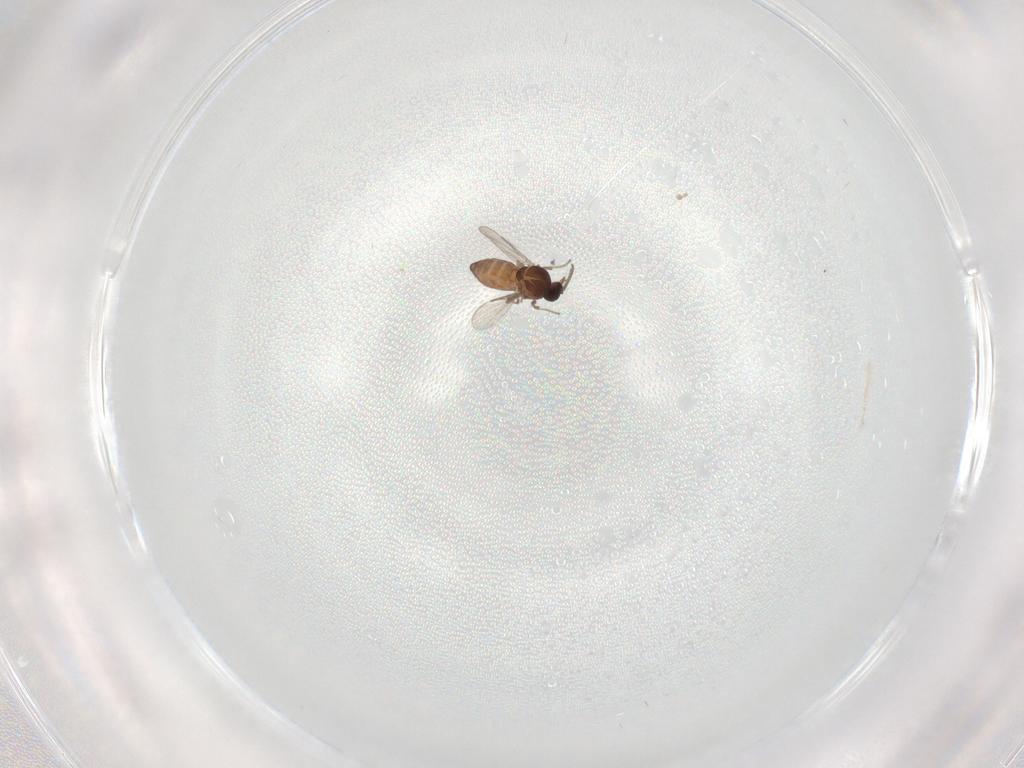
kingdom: Animalia
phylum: Arthropoda
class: Insecta
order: Diptera
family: Ceratopogonidae
